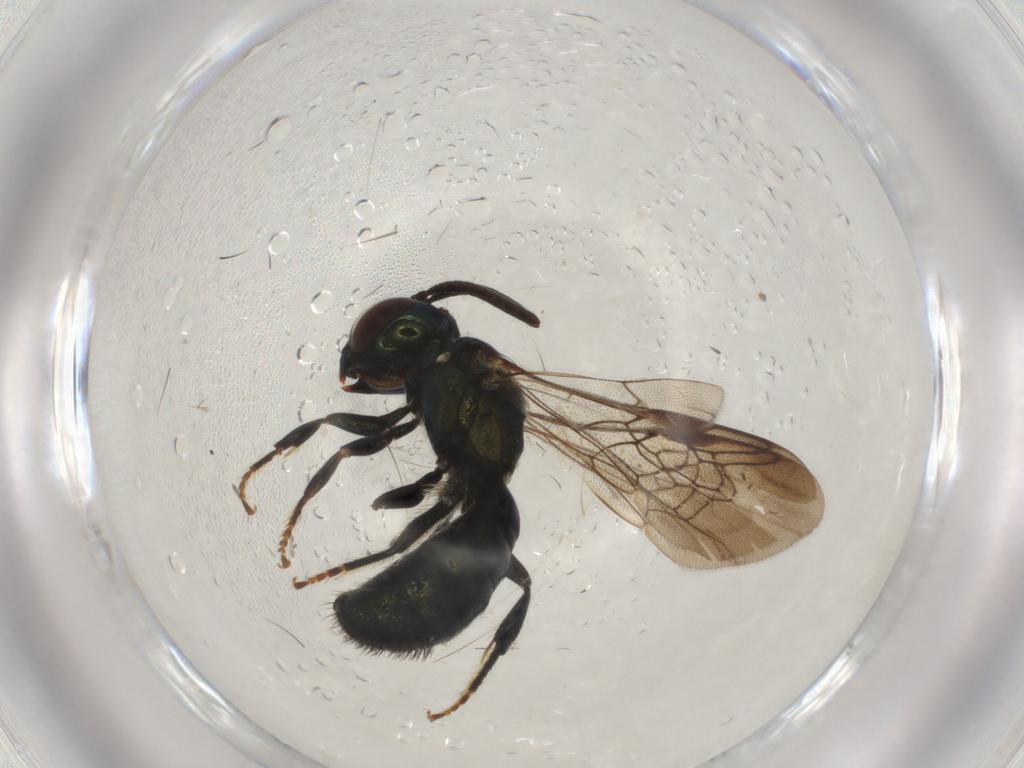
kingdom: Animalia
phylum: Arthropoda
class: Insecta
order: Hymenoptera
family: Apidae
